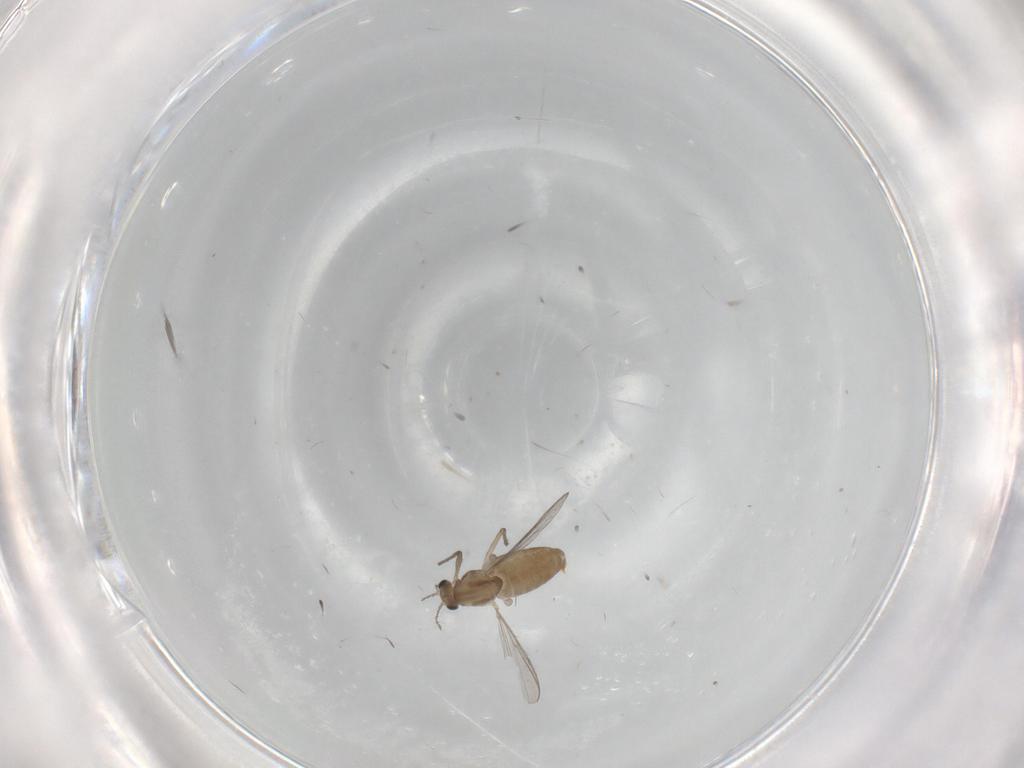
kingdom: Animalia
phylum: Arthropoda
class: Insecta
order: Diptera
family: Chironomidae
